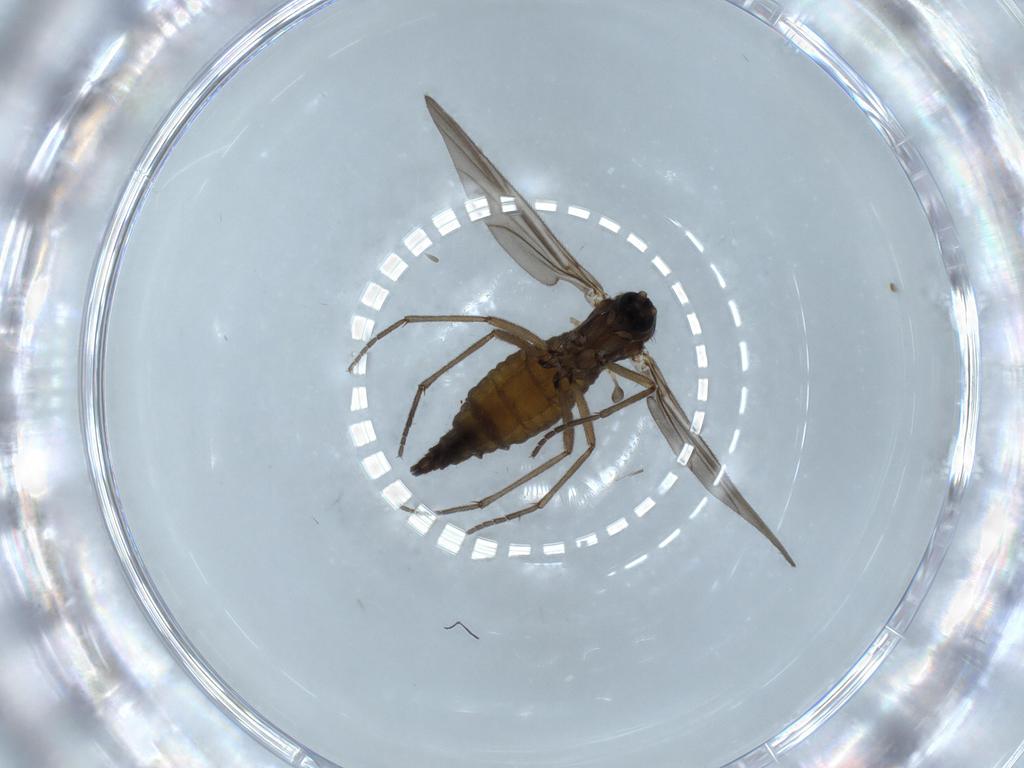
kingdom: Animalia
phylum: Arthropoda
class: Insecta
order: Diptera
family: Sciaridae
